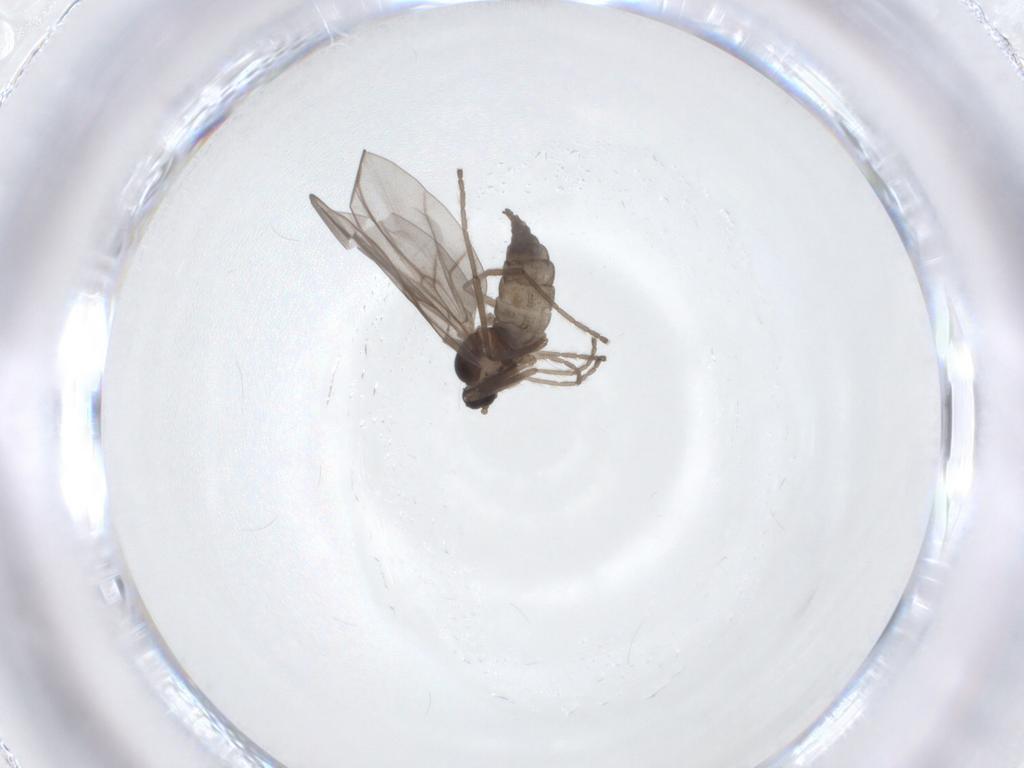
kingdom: Animalia
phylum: Arthropoda
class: Insecta
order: Diptera
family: Cecidomyiidae
